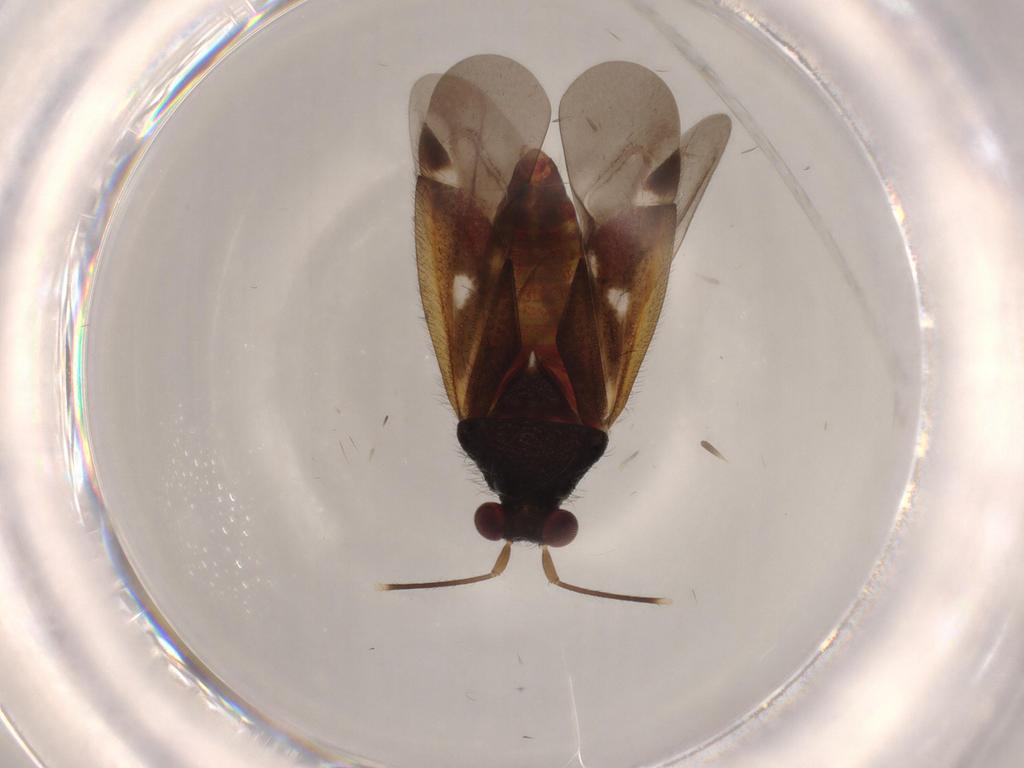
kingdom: Animalia
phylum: Arthropoda
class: Insecta
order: Hemiptera
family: Miridae
